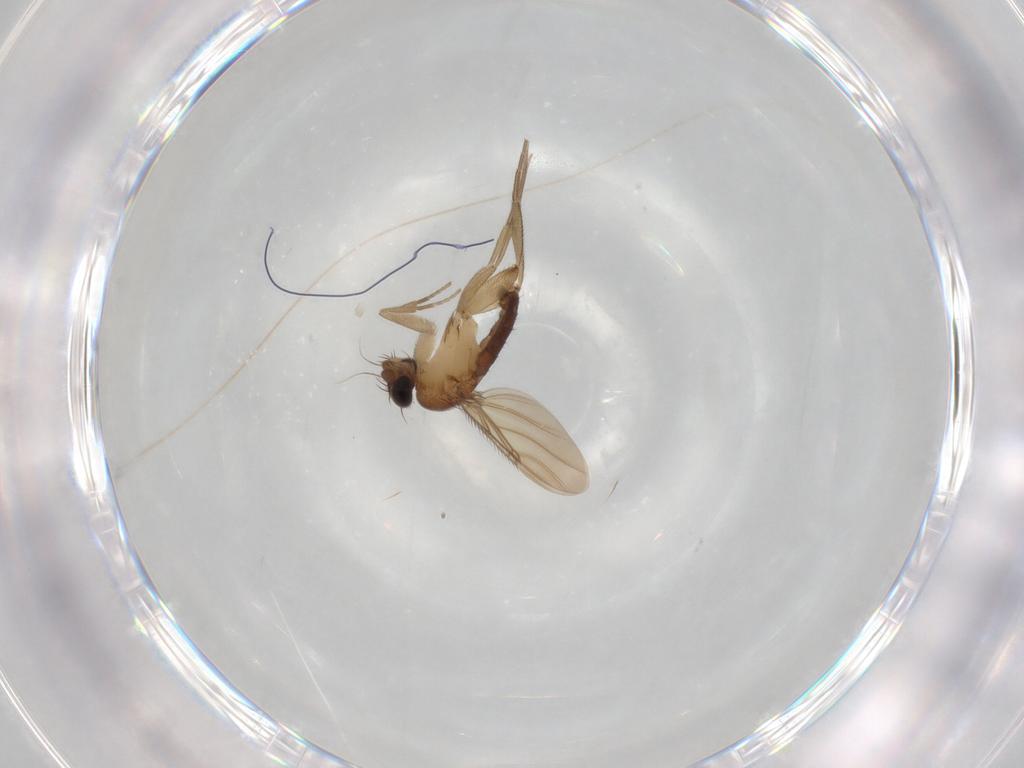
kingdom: Animalia
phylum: Arthropoda
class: Insecta
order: Diptera
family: Phoridae
